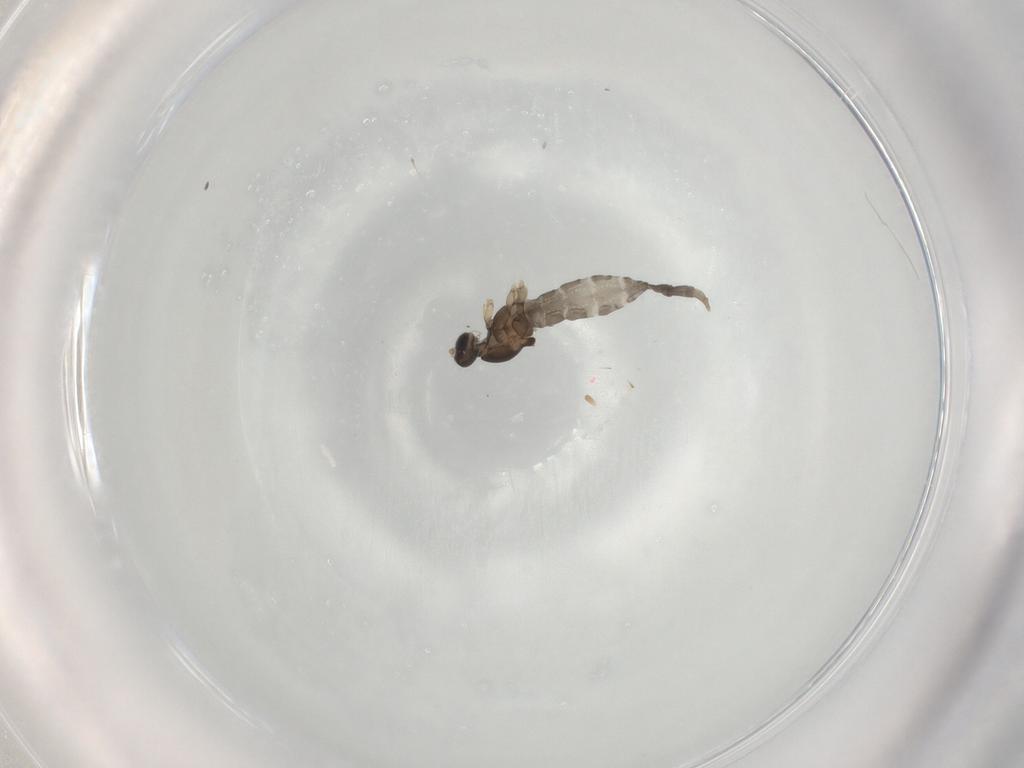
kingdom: Animalia
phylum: Arthropoda
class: Insecta
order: Diptera
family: Cecidomyiidae
